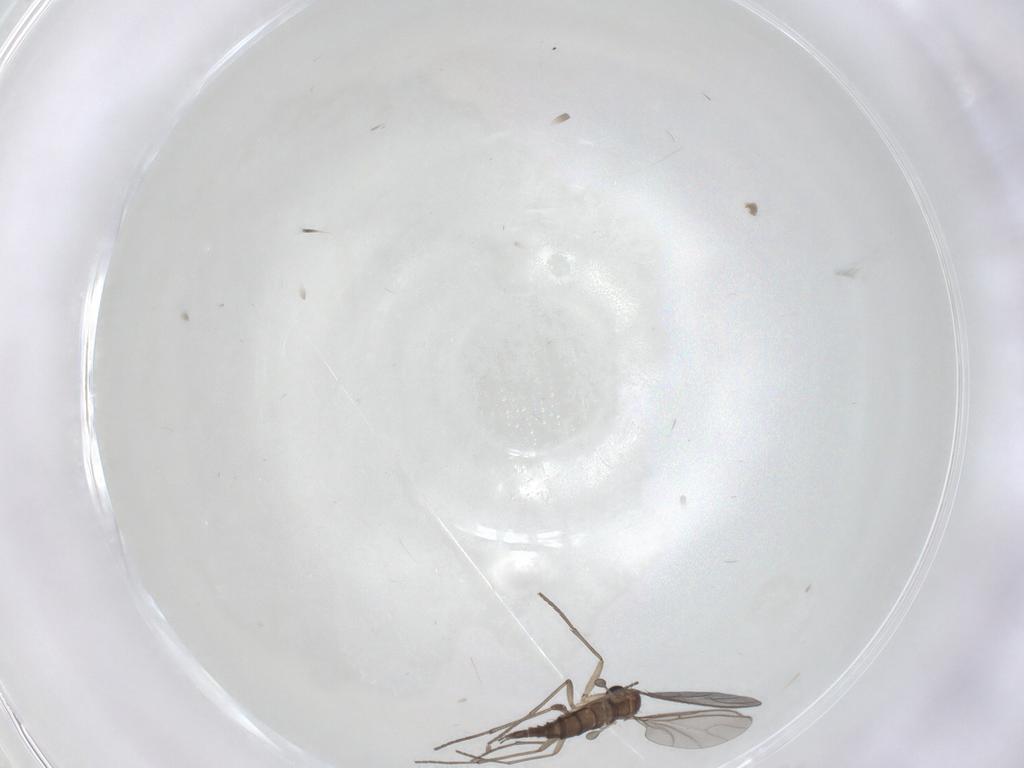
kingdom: Animalia
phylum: Arthropoda
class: Insecta
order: Diptera
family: Sciaridae
